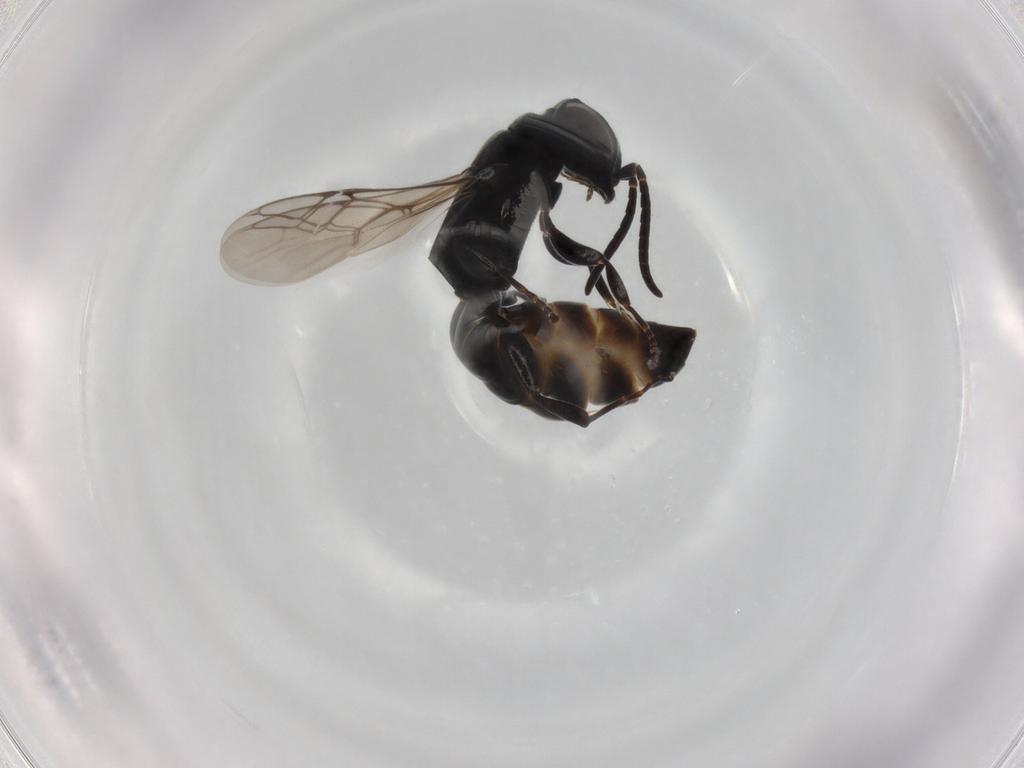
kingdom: Animalia
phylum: Arthropoda
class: Insecta
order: Hymenoptera
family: Crabronidae
